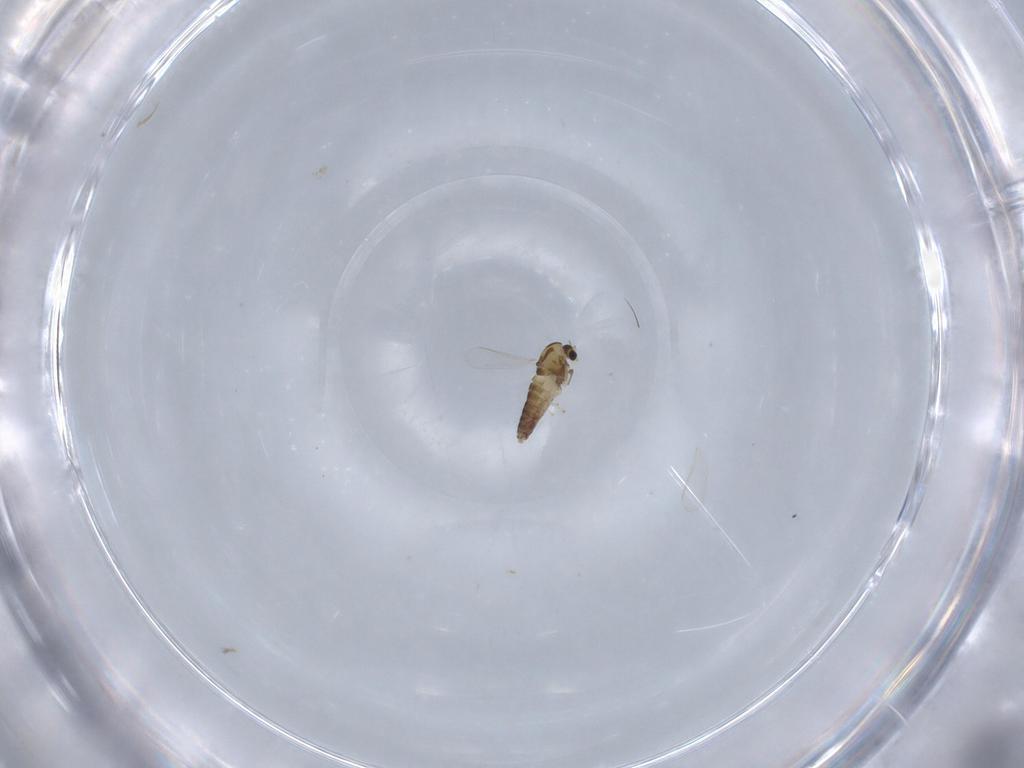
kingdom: Animalia
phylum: Arthropoda
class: Insecta
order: Diptera
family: Chironomidae
